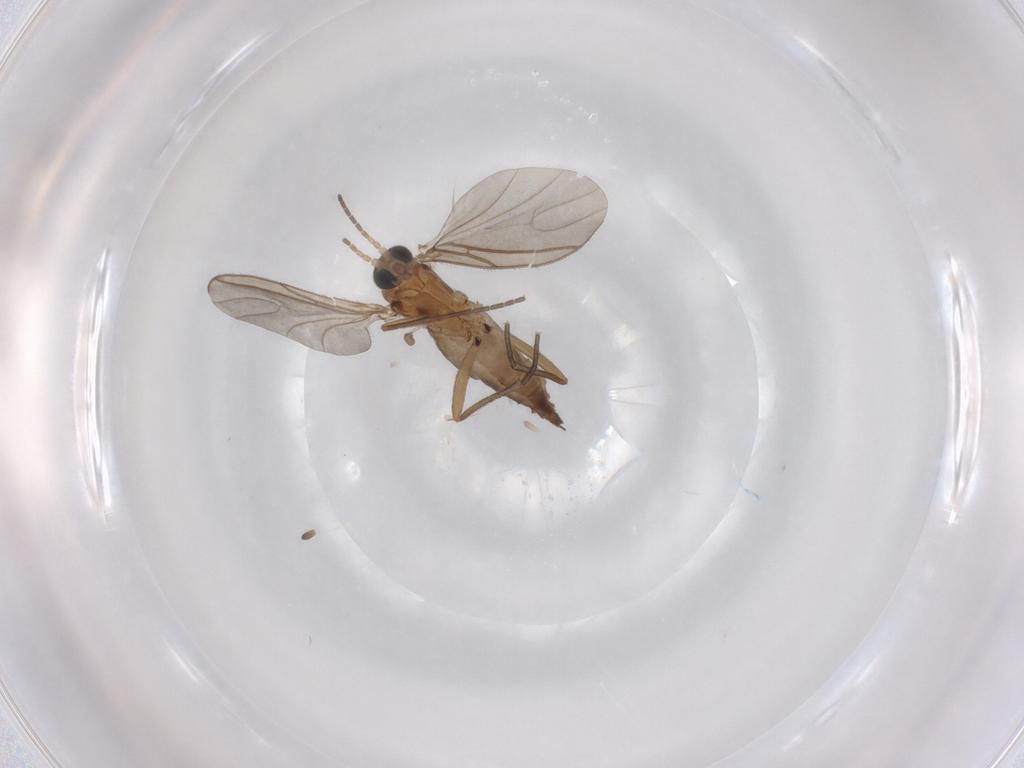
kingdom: Animalia
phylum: Arthropoda
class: Insecta
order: Diptera
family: Sciaridae
